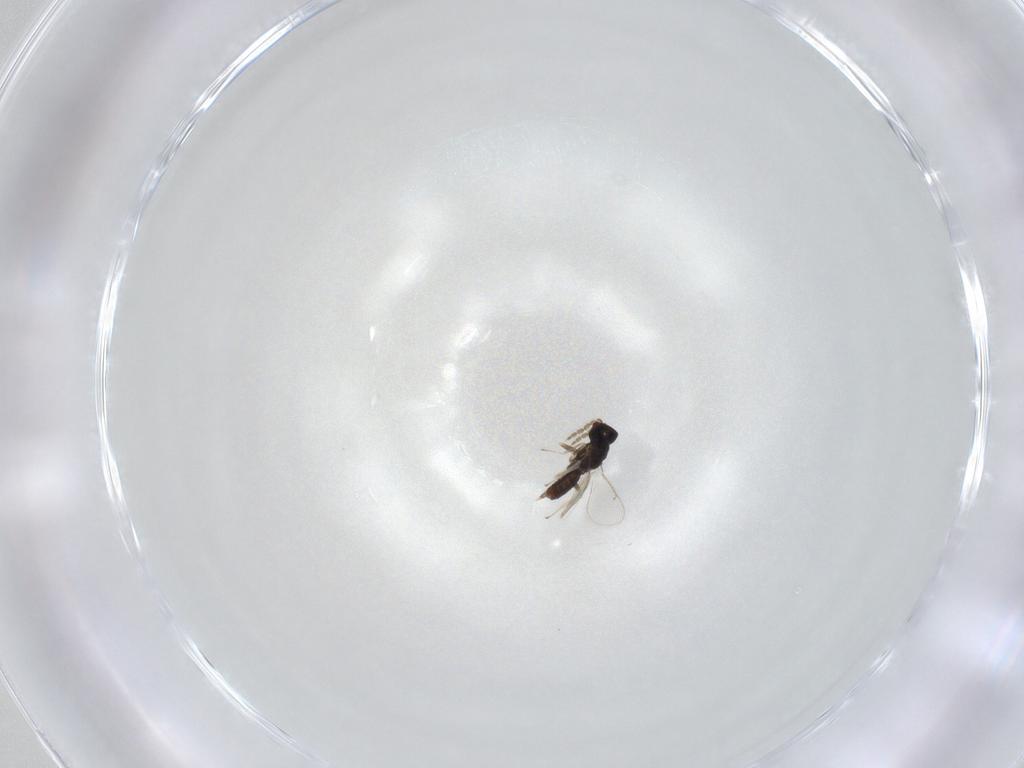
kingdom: Animalia
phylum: Arthropoda
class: Insecta
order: Hymenoptera
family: Eulophidae
